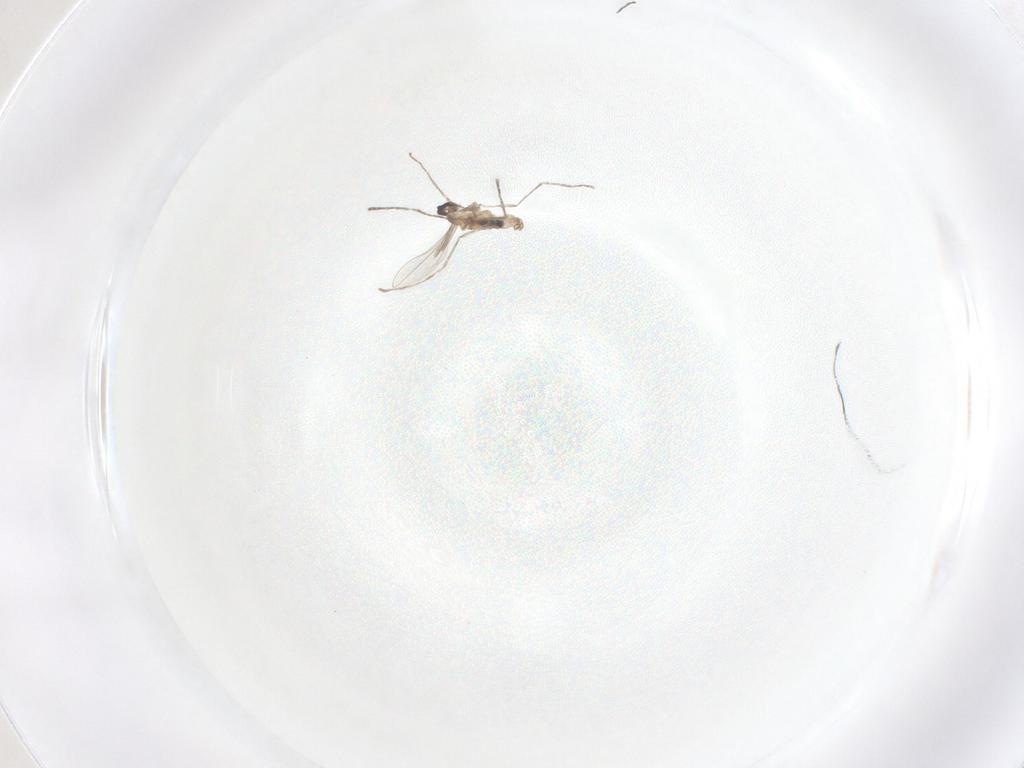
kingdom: Animalia
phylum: Arthropoda
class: Insecta
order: Diptera
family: Cecidomyiidae
